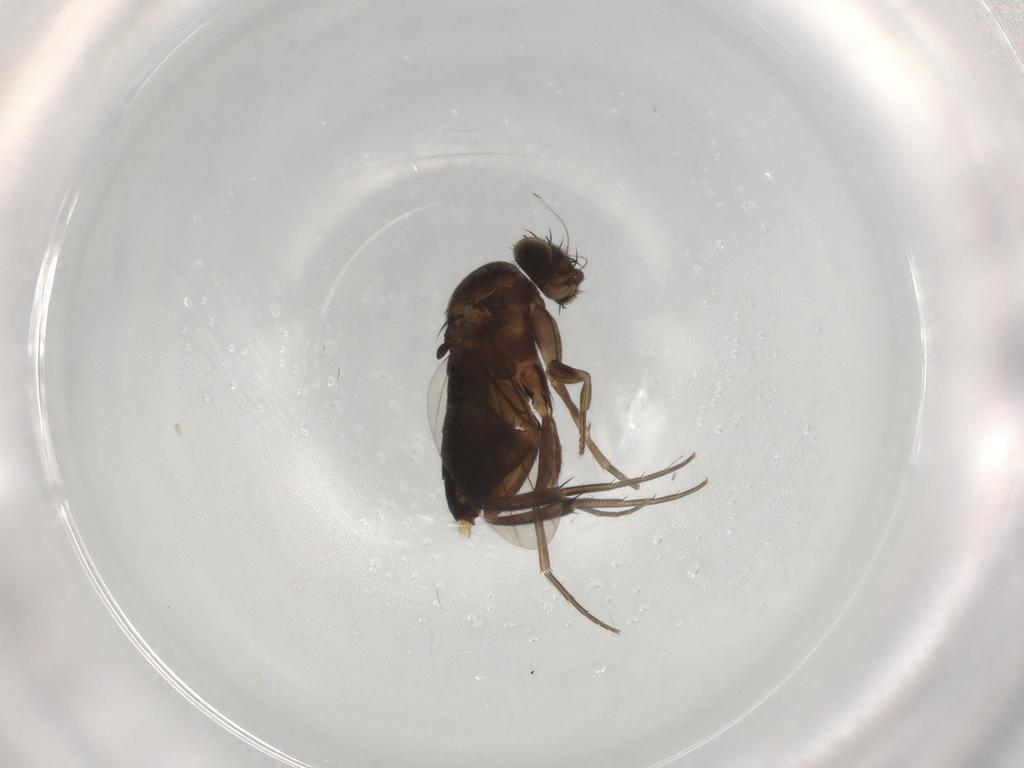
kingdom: Animalia
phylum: Arthropoda
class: Insecta
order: Diptera
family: Phoridae
